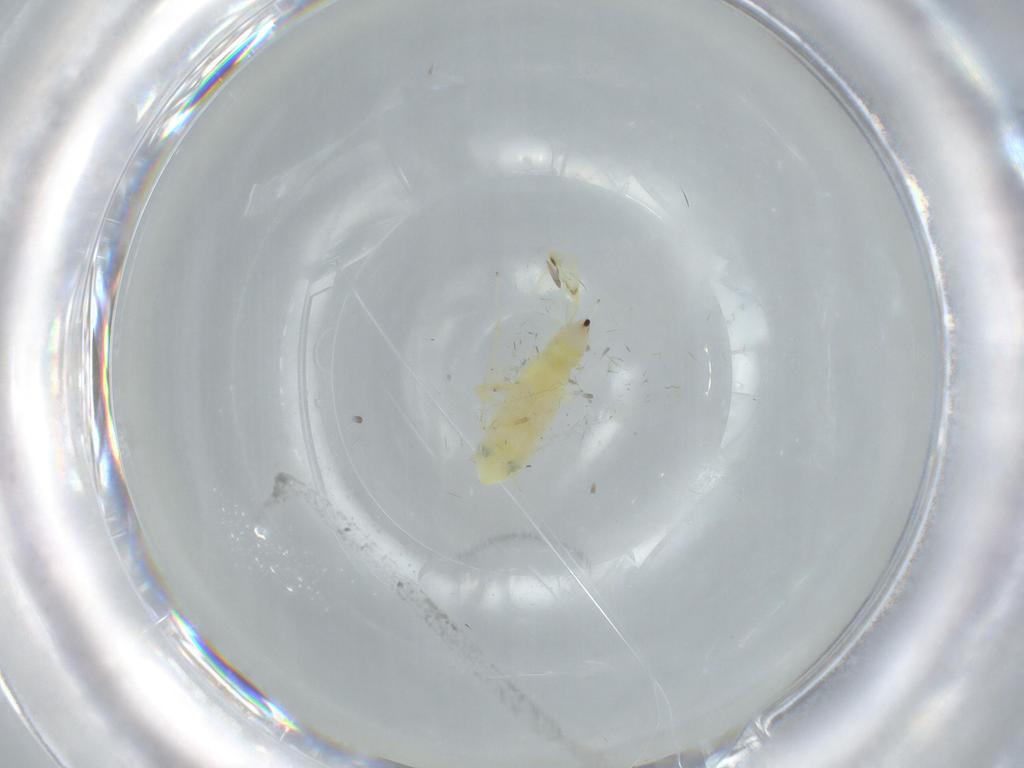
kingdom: Animalia
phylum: Arthropoda
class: Insecta
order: Hemiptera
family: Cicadellidae
